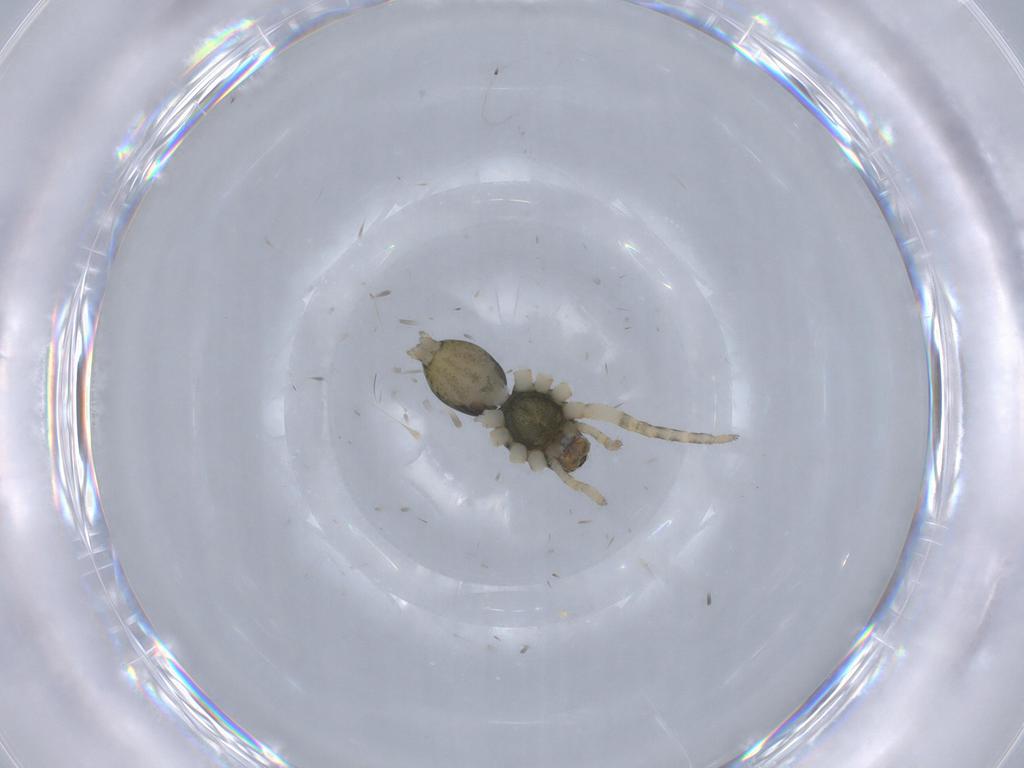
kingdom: Animalia
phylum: Arthropoda
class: Arachnida
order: Araneae
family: Lycosidae
